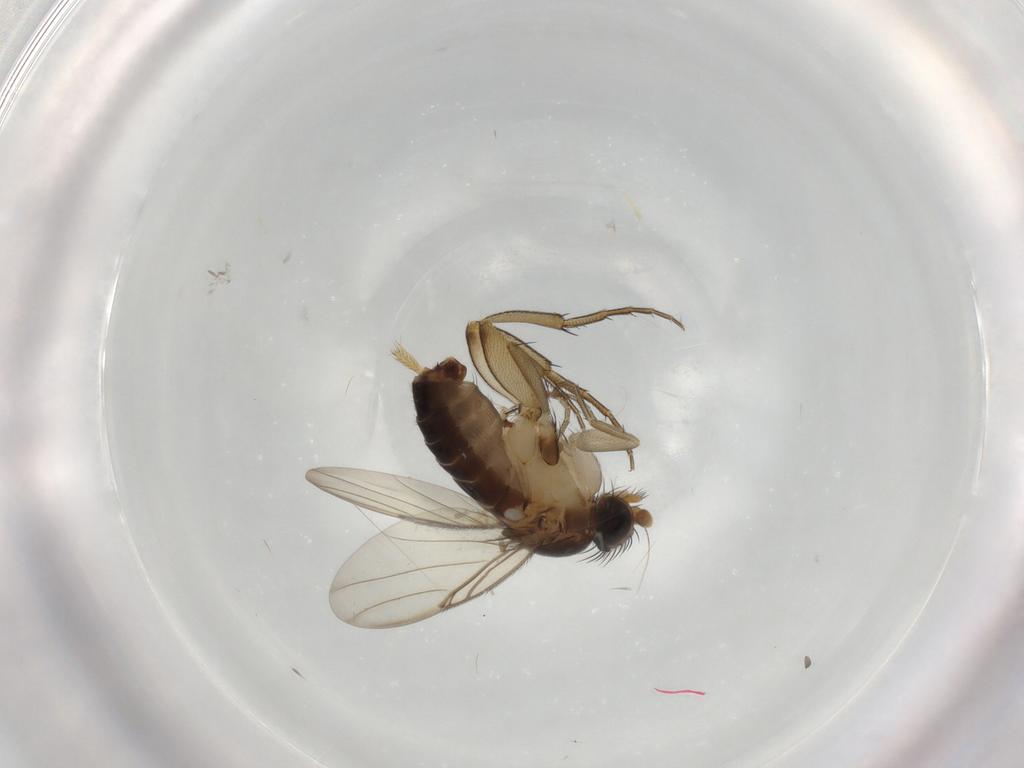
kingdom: Animalia
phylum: Arthropoda
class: Insecta
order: Diptera
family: Phoridae
